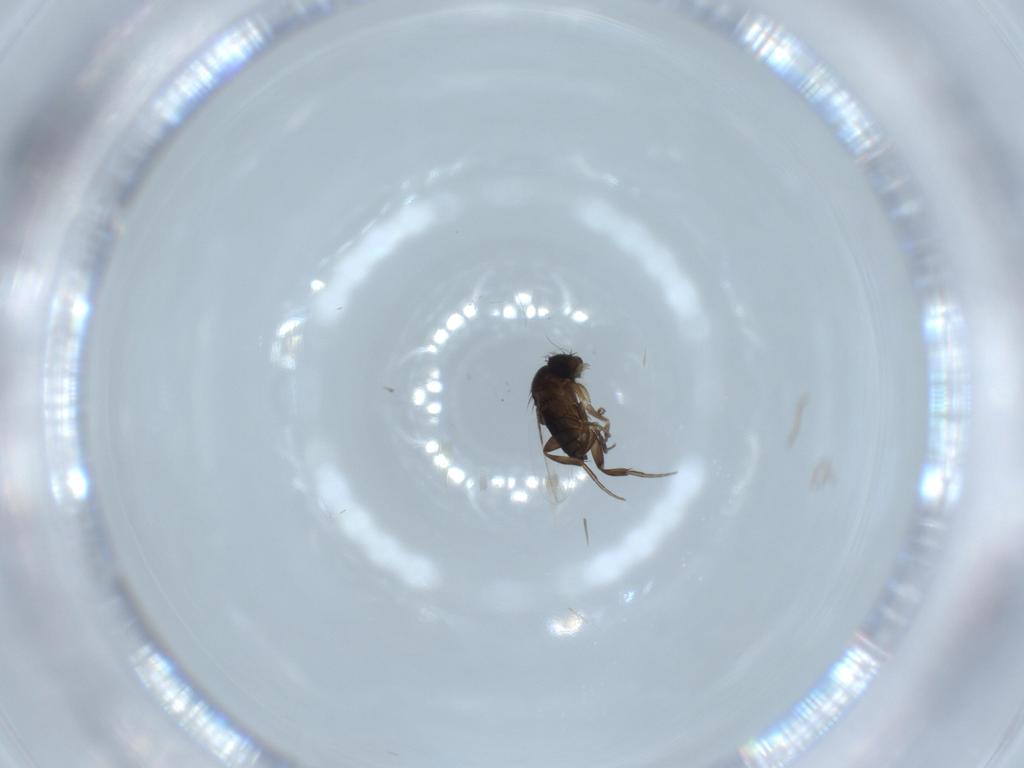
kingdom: Animalia
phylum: Arthropoda
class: Insecta
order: Diptera
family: Phoridae
